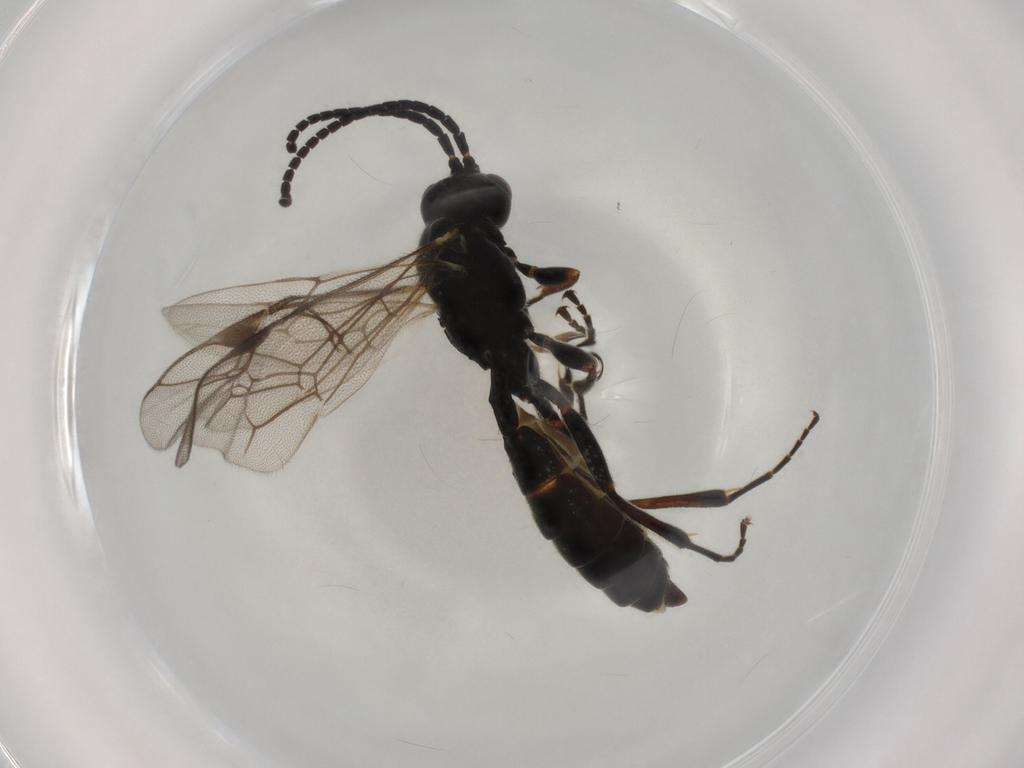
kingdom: Animalia
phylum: Arthropoda
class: Insecta
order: Hymenoptera
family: Ichneumonidae
